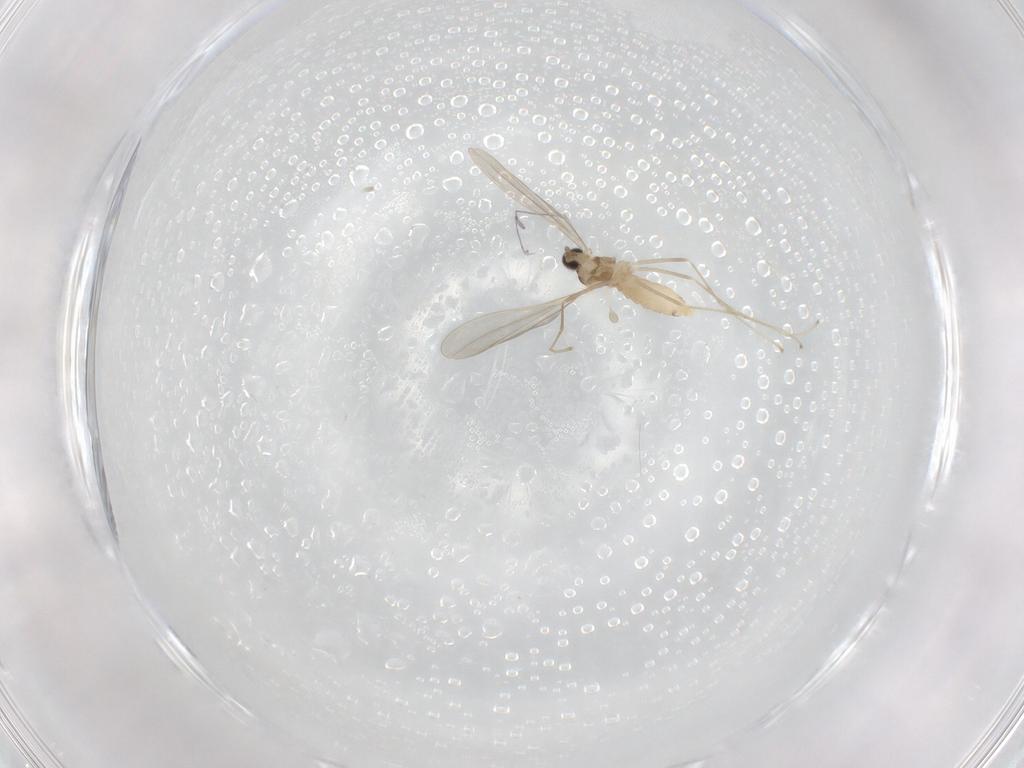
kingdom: Animalia
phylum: Arthropoda
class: Insecta
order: Diptera
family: Cecidomyiidae
